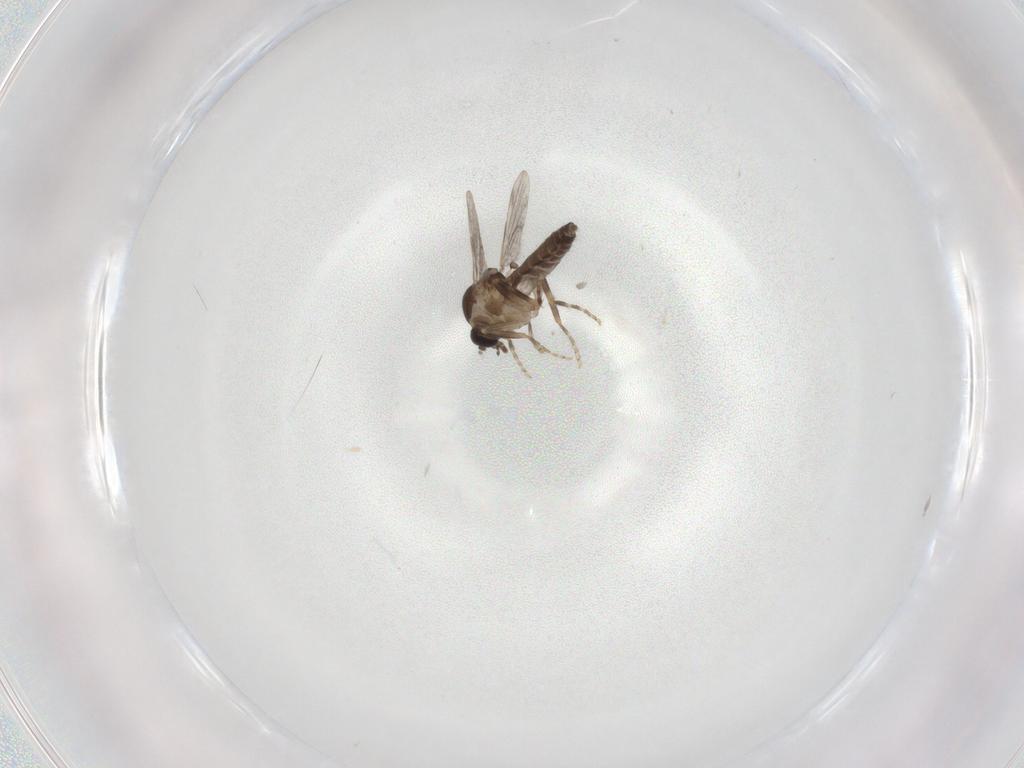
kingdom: Animalia
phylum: Arthropoda
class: Insecta
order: Diptera
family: Ceratopogonidae
